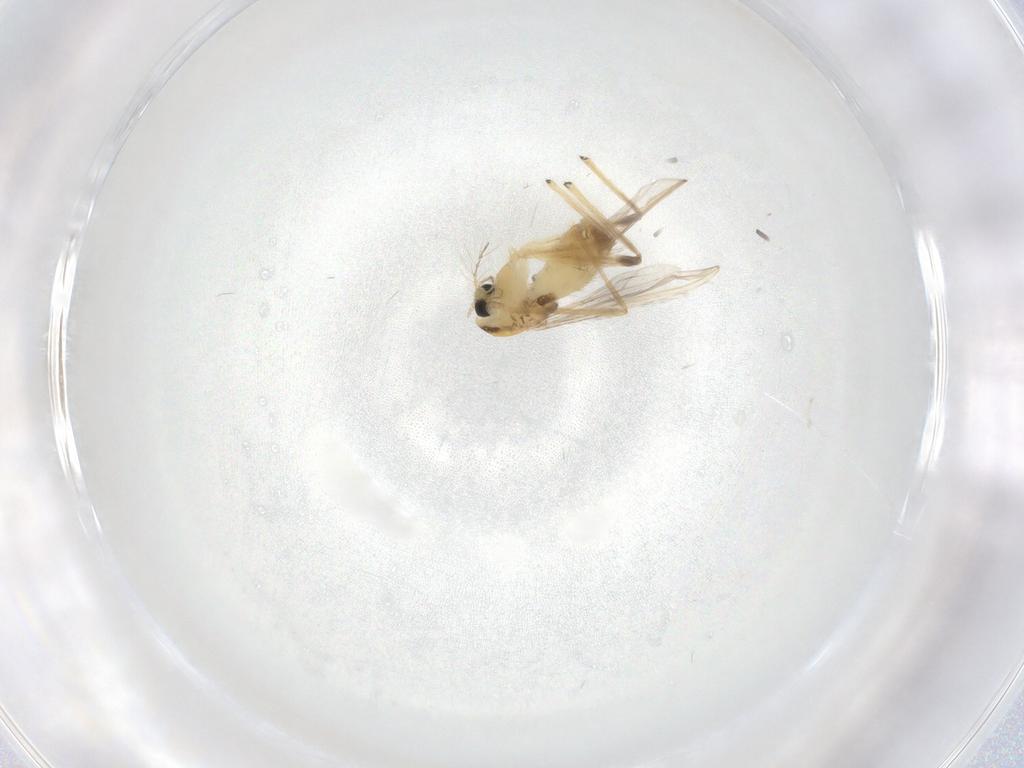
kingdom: Animalia
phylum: Arthropoda
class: Insecta
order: Diptera
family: Chironomidae
